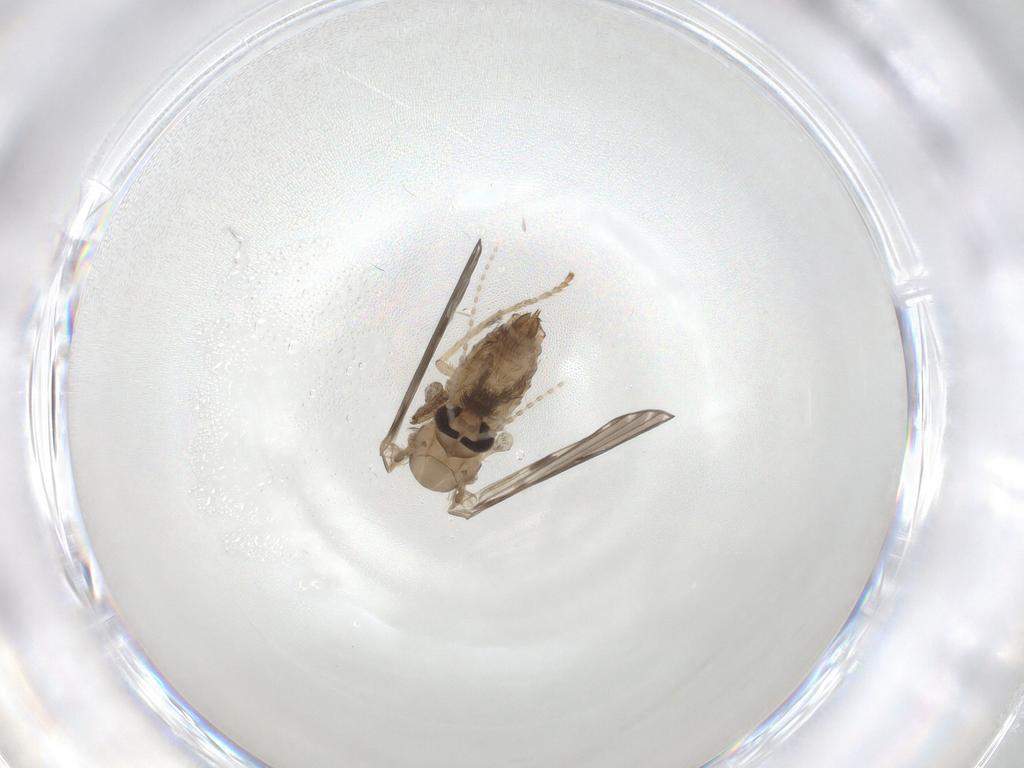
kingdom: Animalia
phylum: Arthropoda
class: Insecta
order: Diptera
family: Psychodidae
